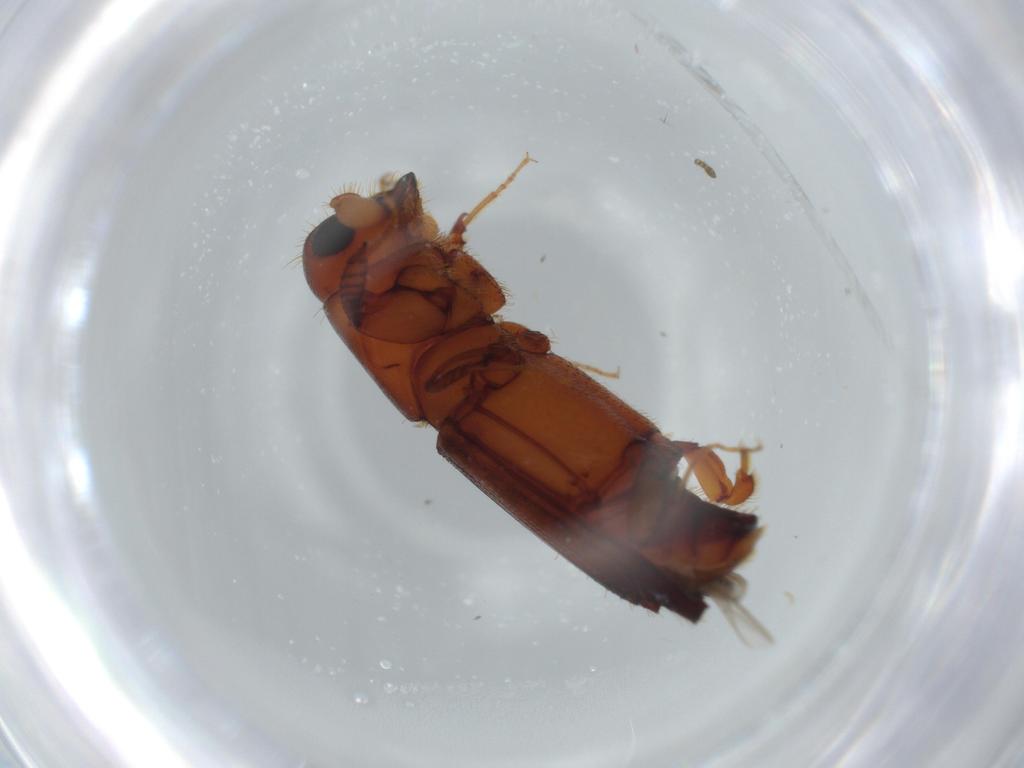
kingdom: Animalia
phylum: Arthropoda
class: Insecta
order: Coleoptera
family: Curculionidae
